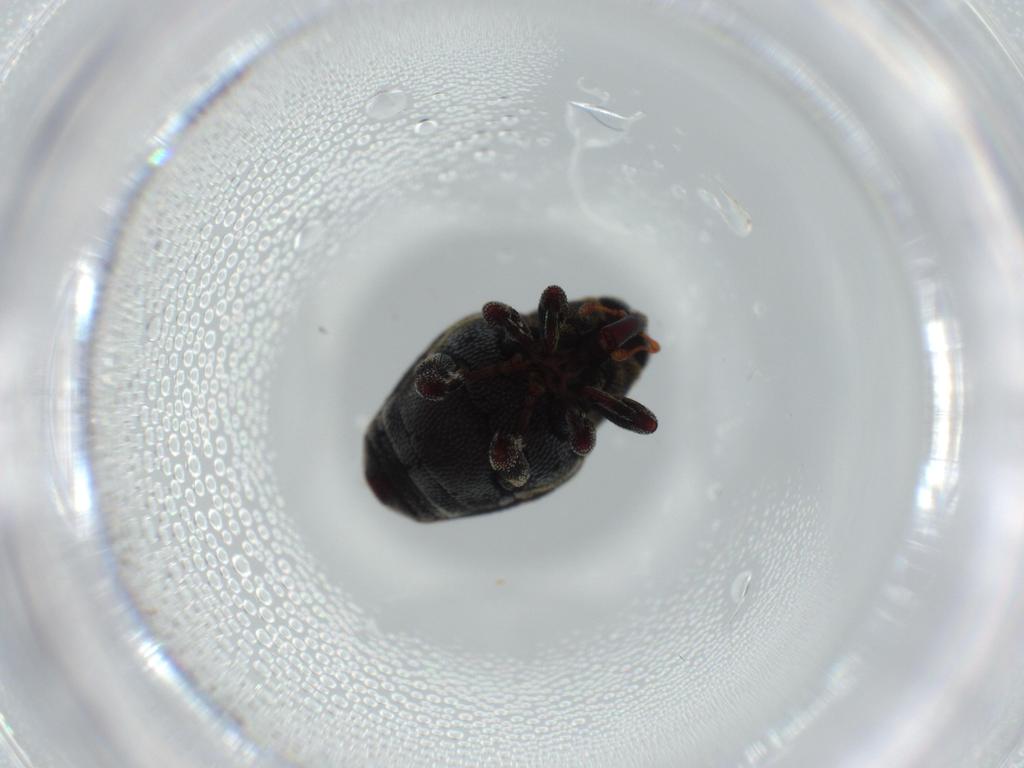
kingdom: Animalia
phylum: Arthropoda
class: Insecta
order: Coleoptera
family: Curculionidae
